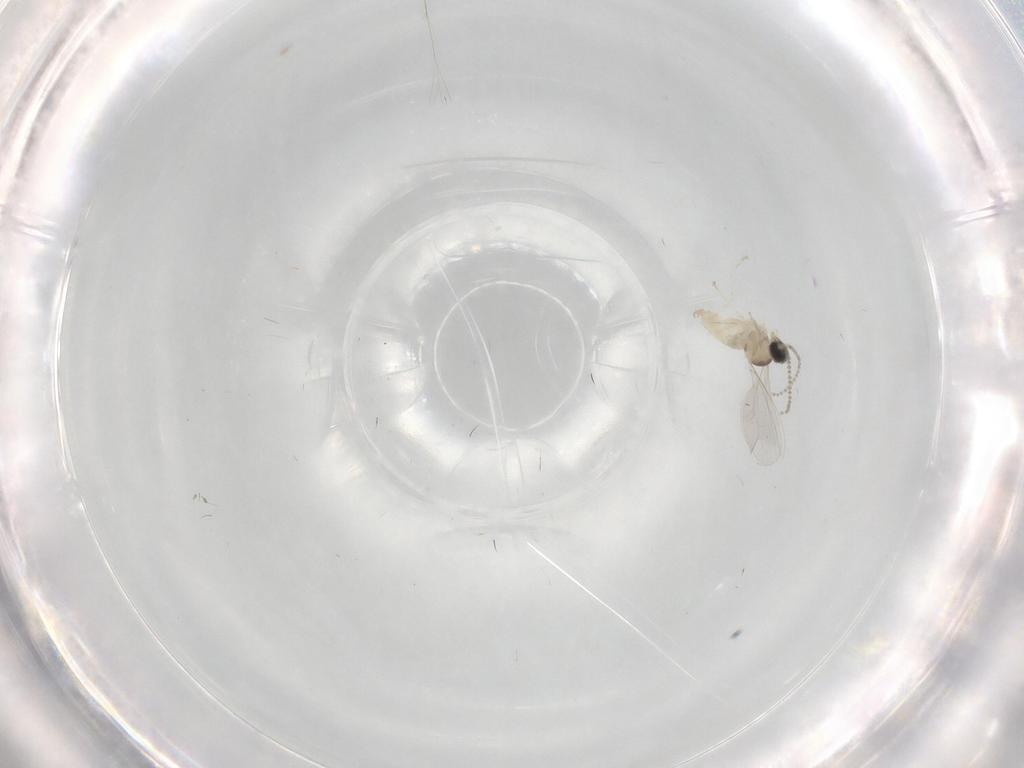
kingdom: Animalia
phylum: Arthropoda
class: Insecta
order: Diptera
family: Cecidomyiidae
